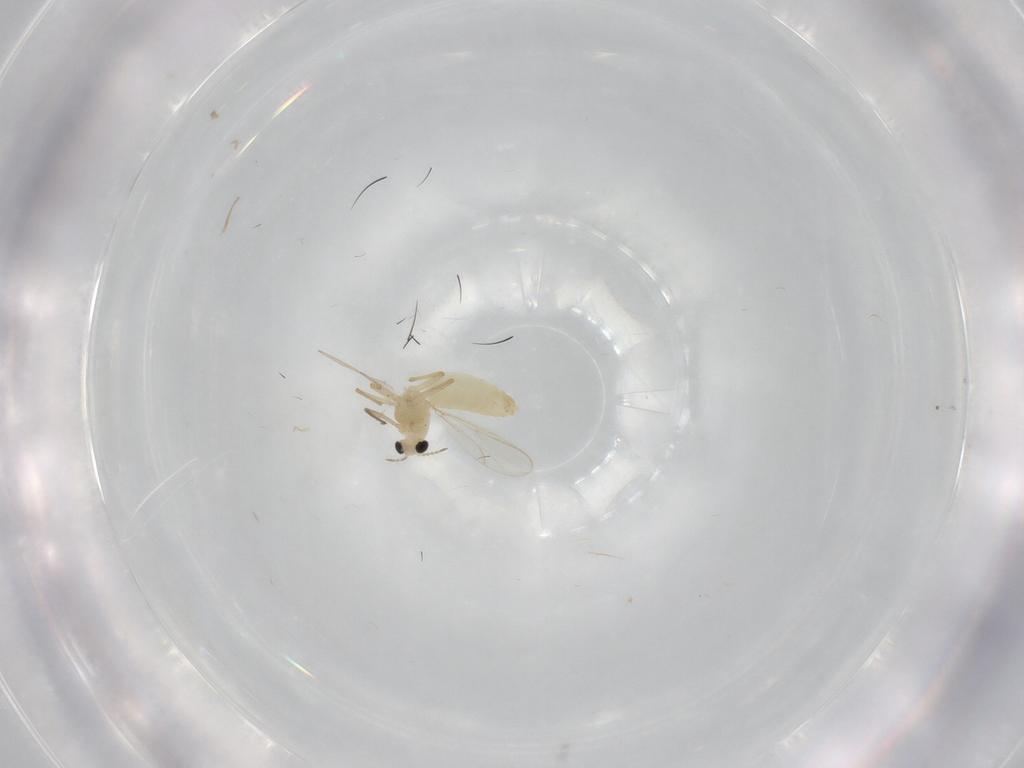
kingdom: Animalia
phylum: Arthropoda
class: Insecta
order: Diptera
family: Chironomidae
